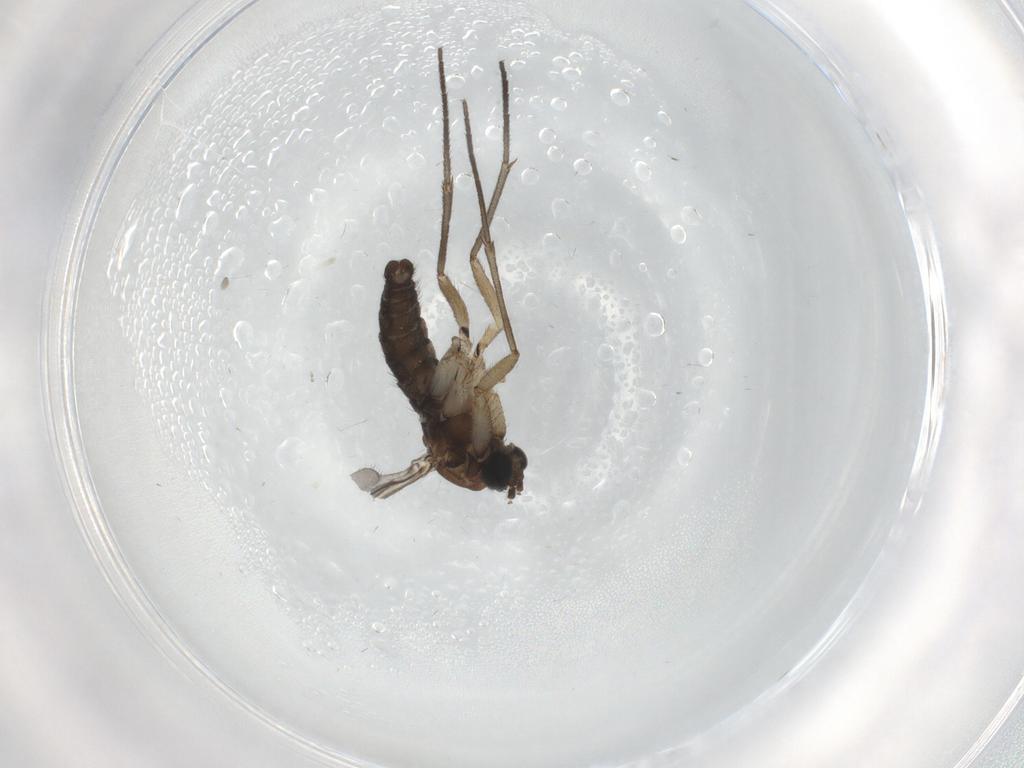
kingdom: Animalia
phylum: Arthropoda
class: Insecta
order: Diptera
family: Sciaridae
